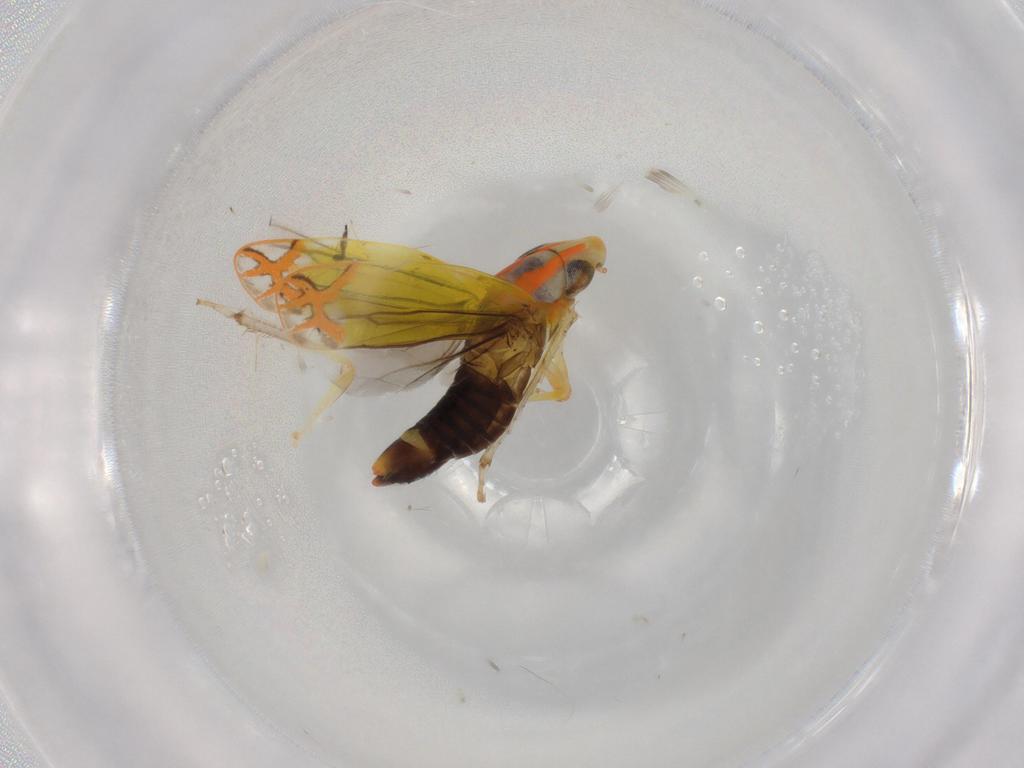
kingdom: Animalia
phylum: Arthropoda
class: Insecta
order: Hemiptera
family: Cicadellidae
